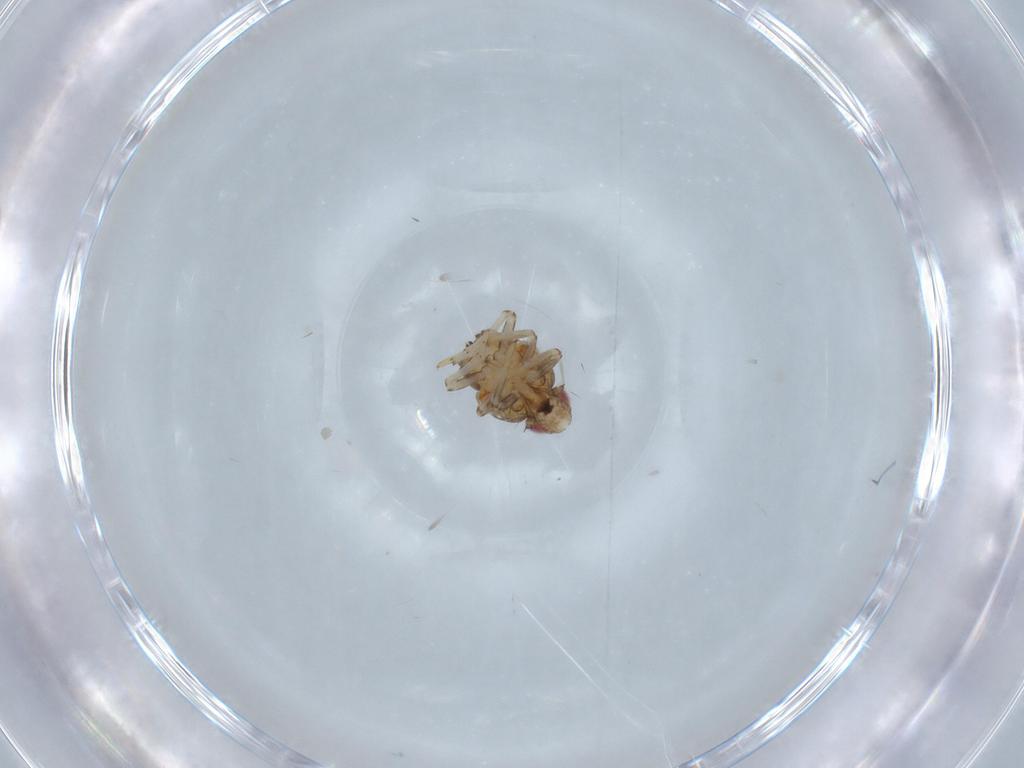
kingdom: Animalia
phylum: Arthropoda
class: Insecta
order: Hemiptera
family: Issidae
